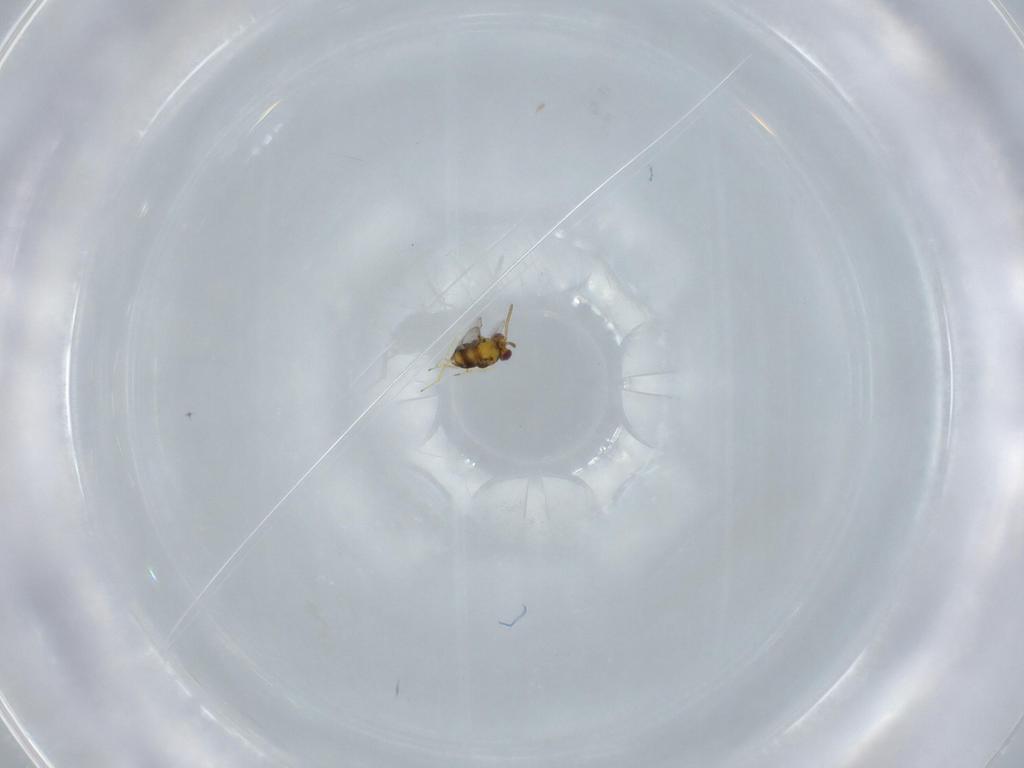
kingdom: Animalia
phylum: Arthropoda
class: Insecta
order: Hymenoptera
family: Aphelinidae
